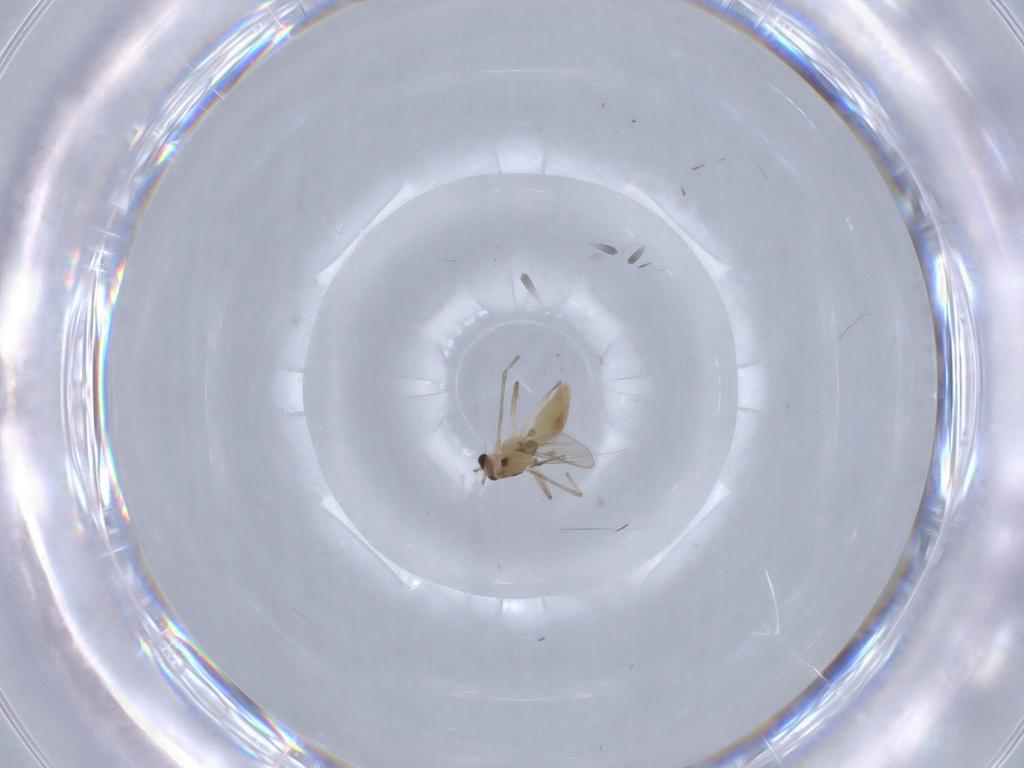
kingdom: Animalia
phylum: Arthropoda
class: Insecta
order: Diptera
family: Chironomidae
